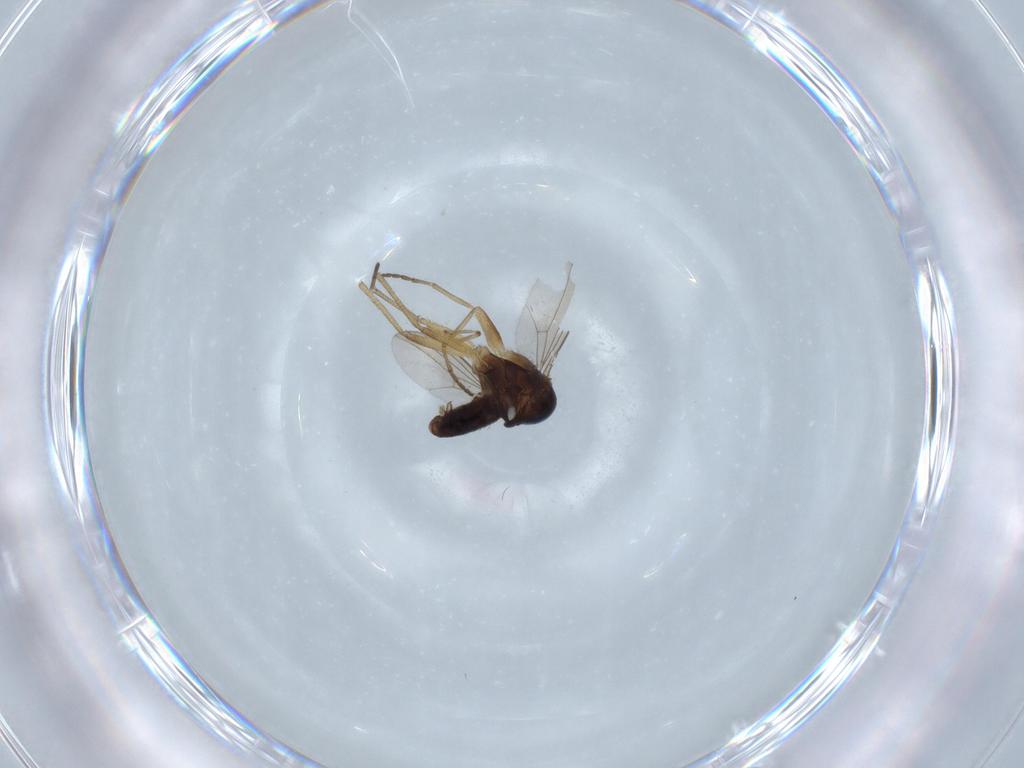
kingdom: Animalia
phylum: Arthropoda
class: Insecta
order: Diptera
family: Dolichopodidae
